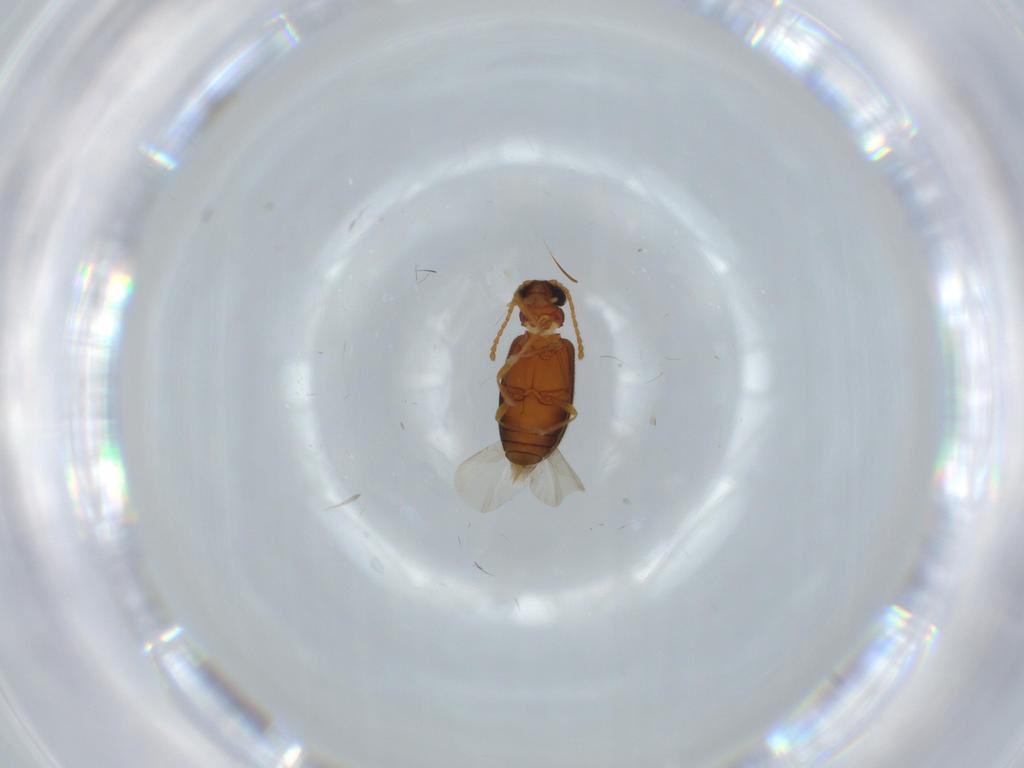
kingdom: Animalia
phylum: Arthropoda
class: Insecta
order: Coleoptera
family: Aderidae
